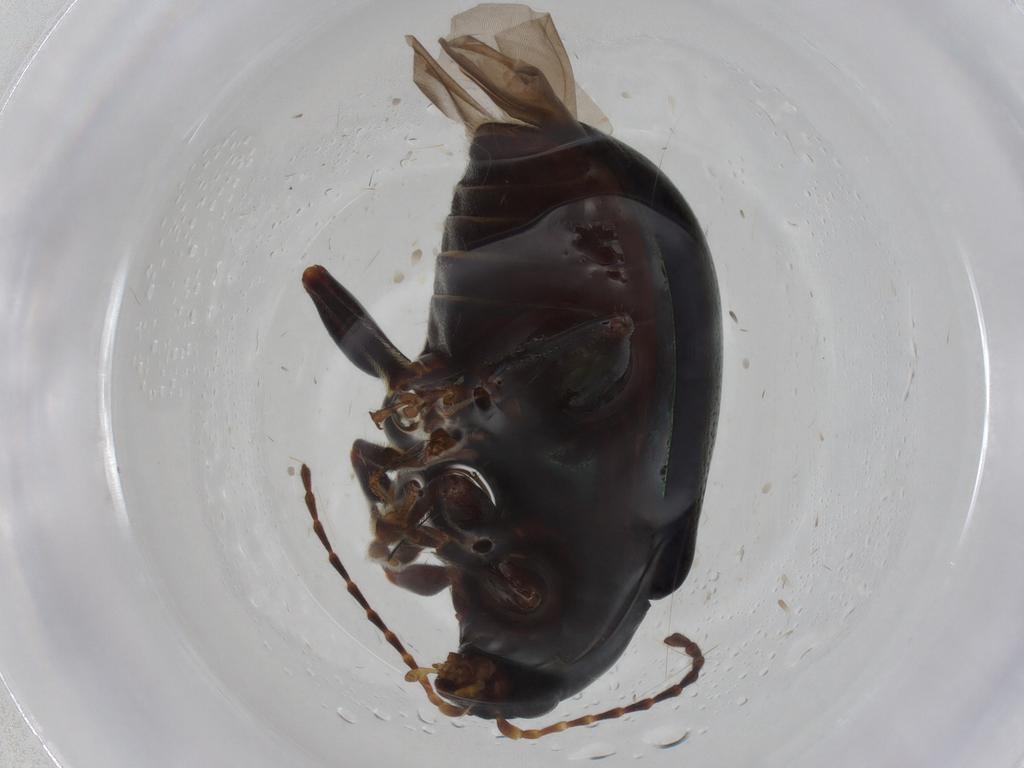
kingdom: Animalia
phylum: Arthropoda
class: Insecta
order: Coleoptera
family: Chrysomelidae
